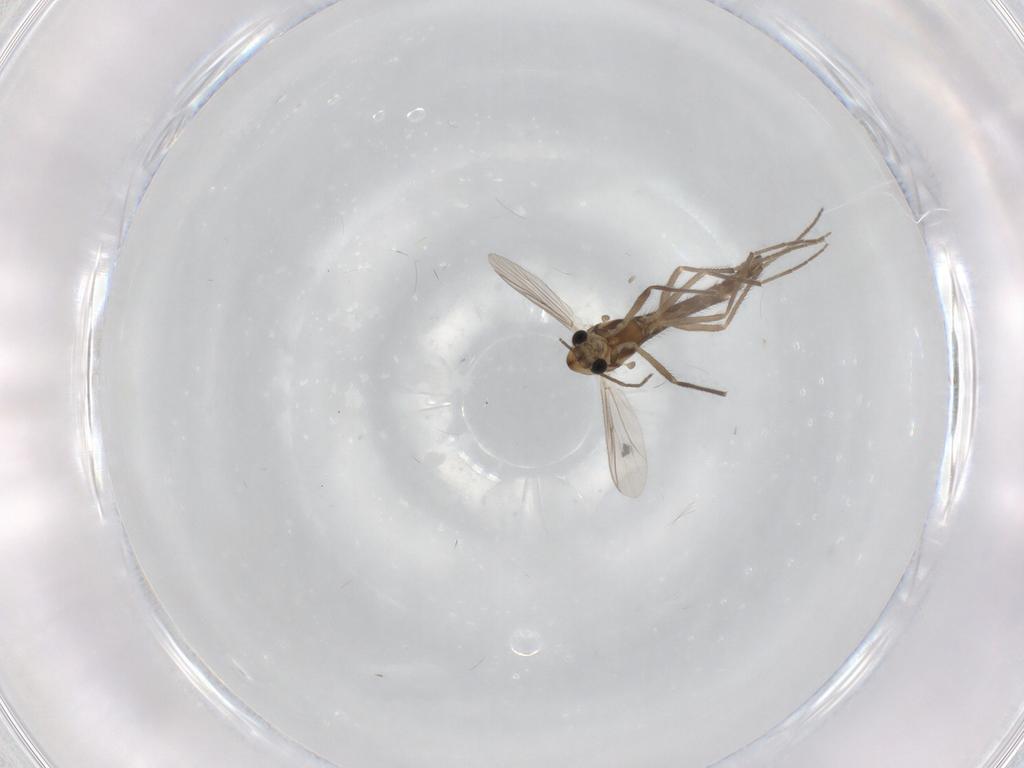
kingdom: Animalia
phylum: Arthropoda
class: Insecta
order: Diptera
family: Chironomidae
